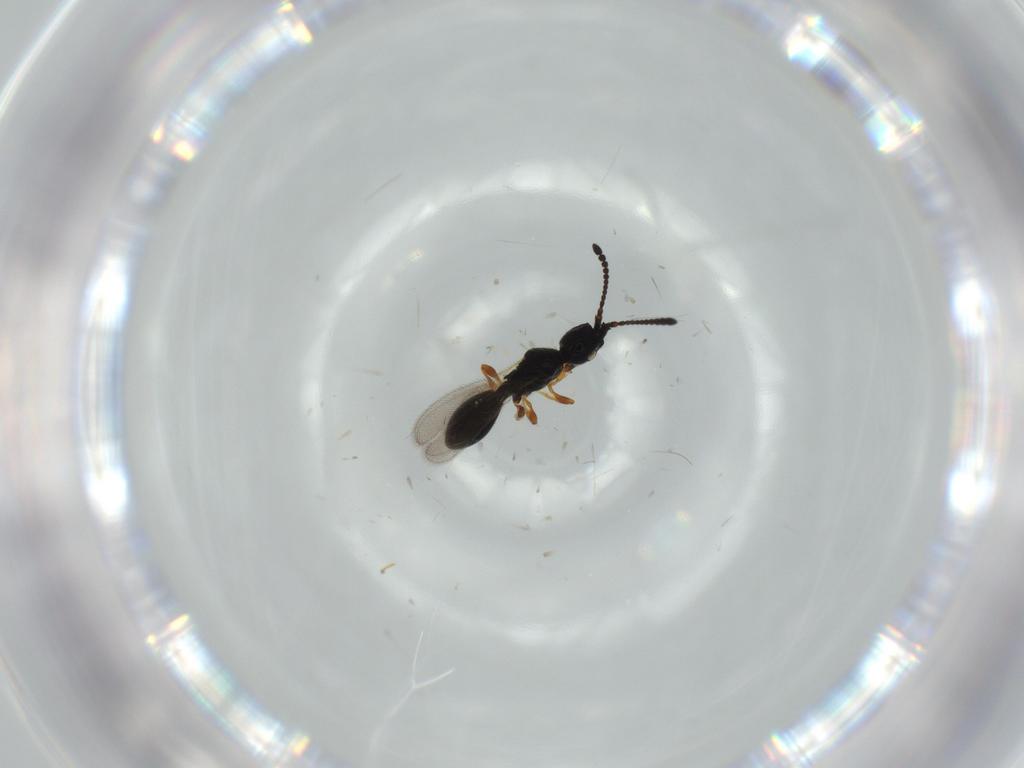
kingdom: Animalia
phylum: Arthropoda
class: Insecta
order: Hymenoptera
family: Diapriidae
